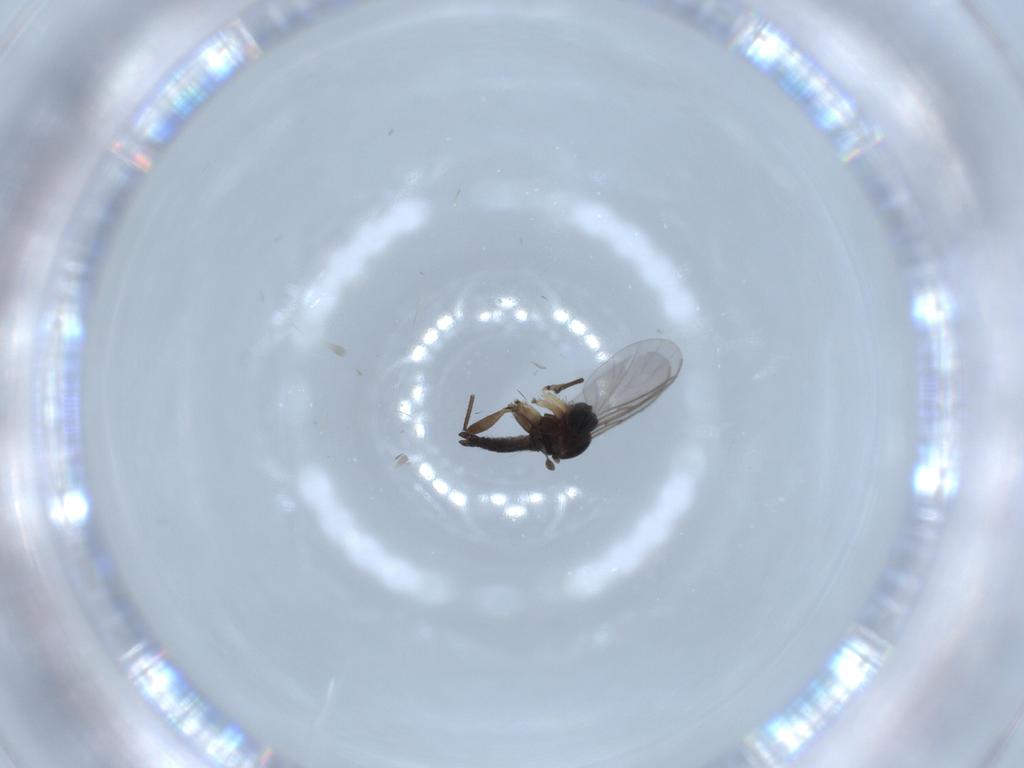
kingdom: Animalia
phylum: Arthropoda
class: Insecta
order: Diptera
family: Sciaridae
